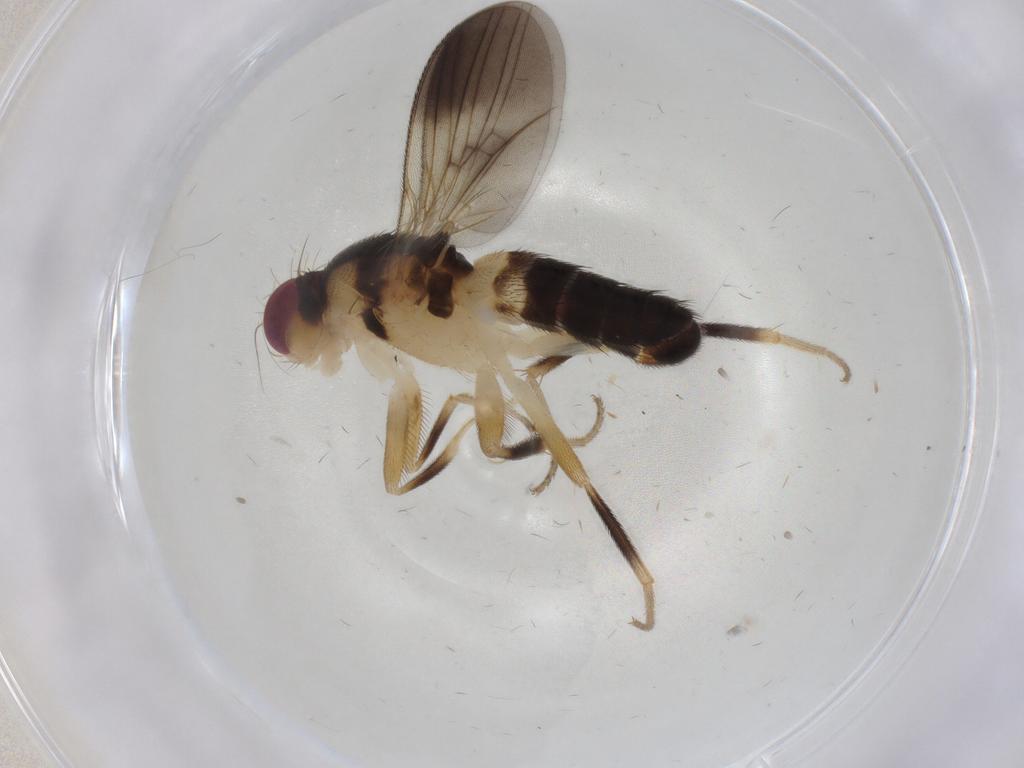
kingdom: Animalia
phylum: Arthropoda
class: Insecta
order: Diptera
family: Clusiidae
